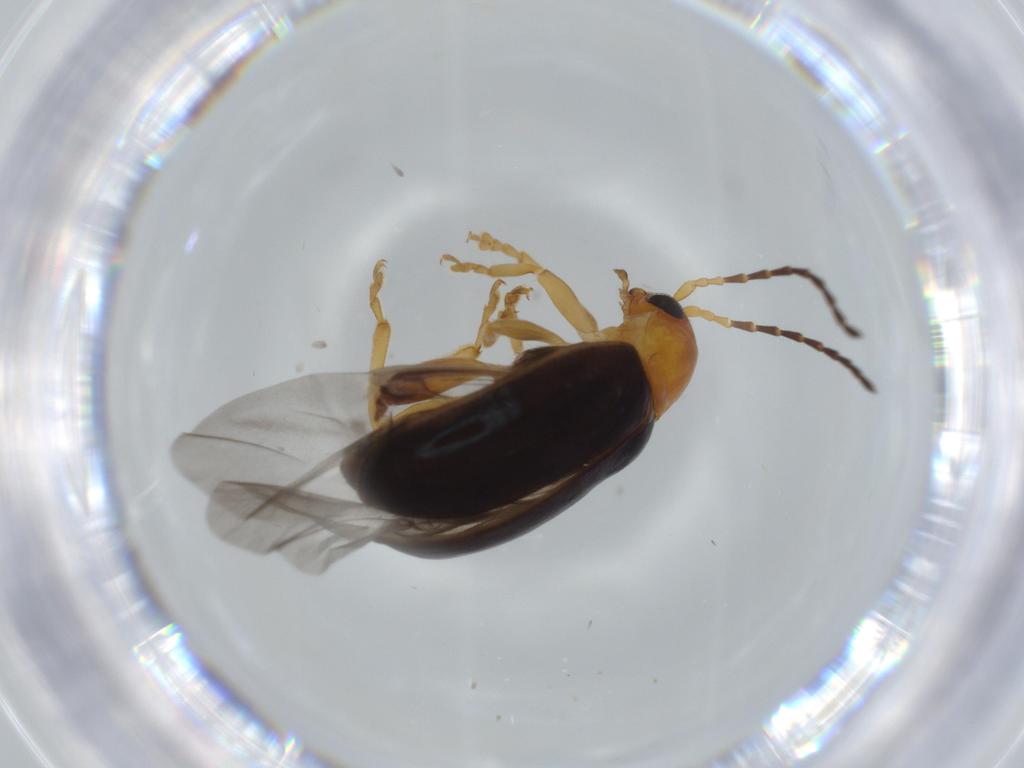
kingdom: Animalia
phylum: Arthropoda
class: Insecta
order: Coleoptera
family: Chrysomelidae
